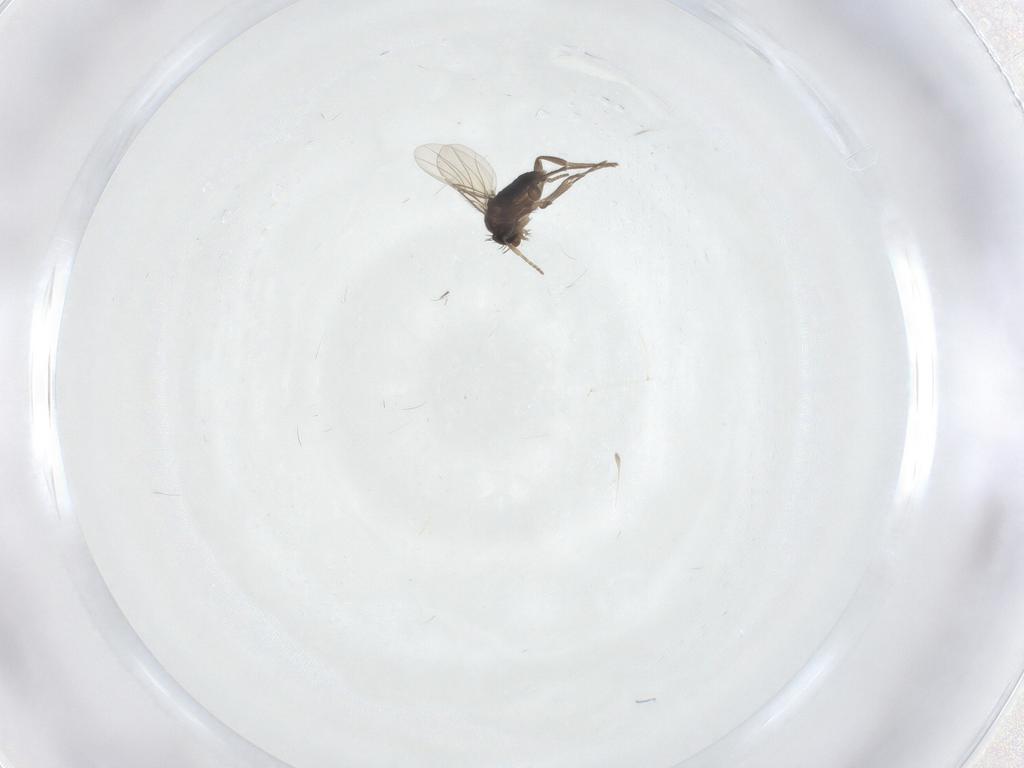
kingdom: Animalia
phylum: Arthropoda
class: Insecta
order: Diptera
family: Phoridae
